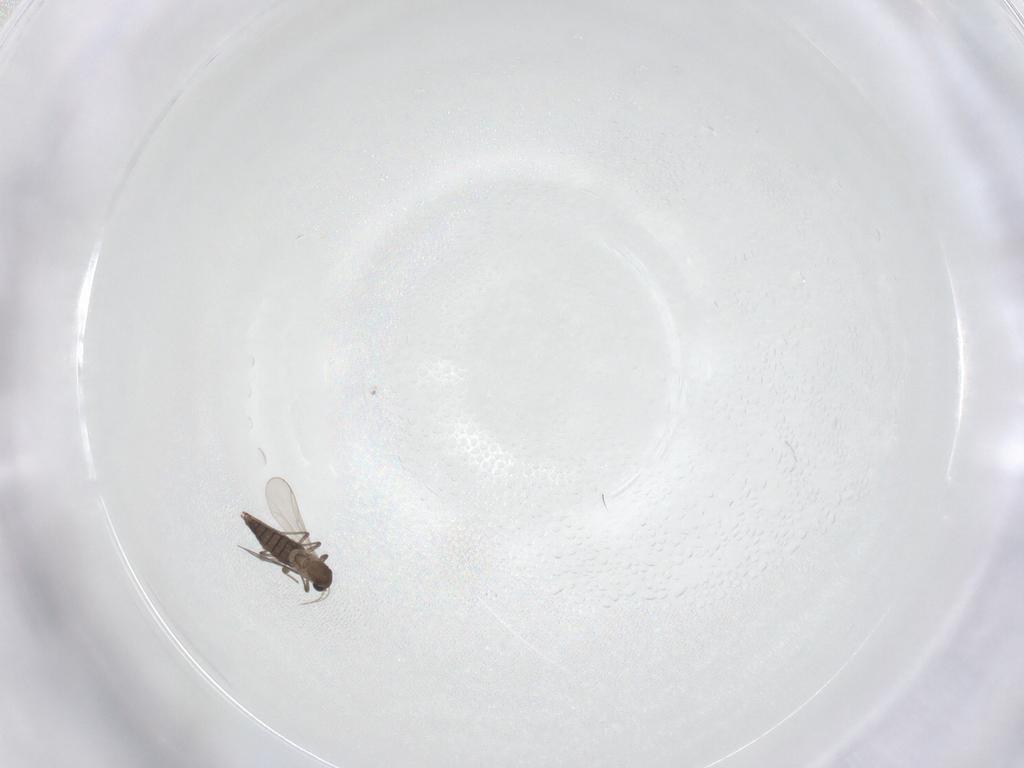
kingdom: Animalia
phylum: Arthropoda
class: Insecta
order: Diptera
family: Chironomidae
